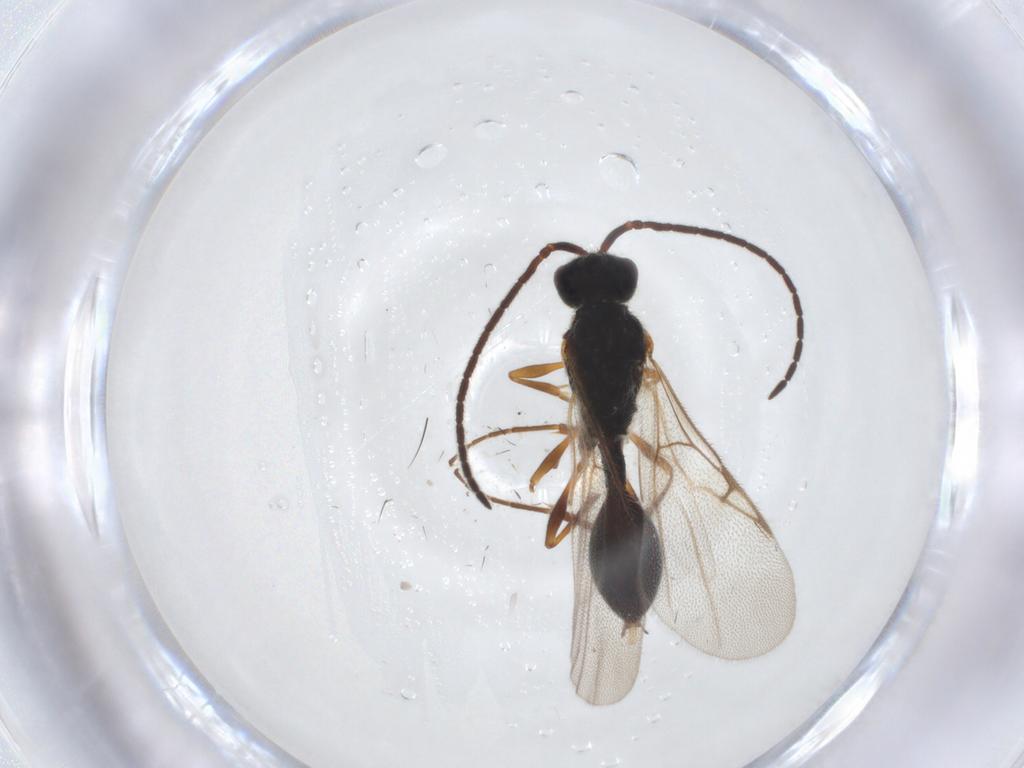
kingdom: Animalia
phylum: Arthropoda
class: Insecta
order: Hymenoptera
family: Diapriidae
